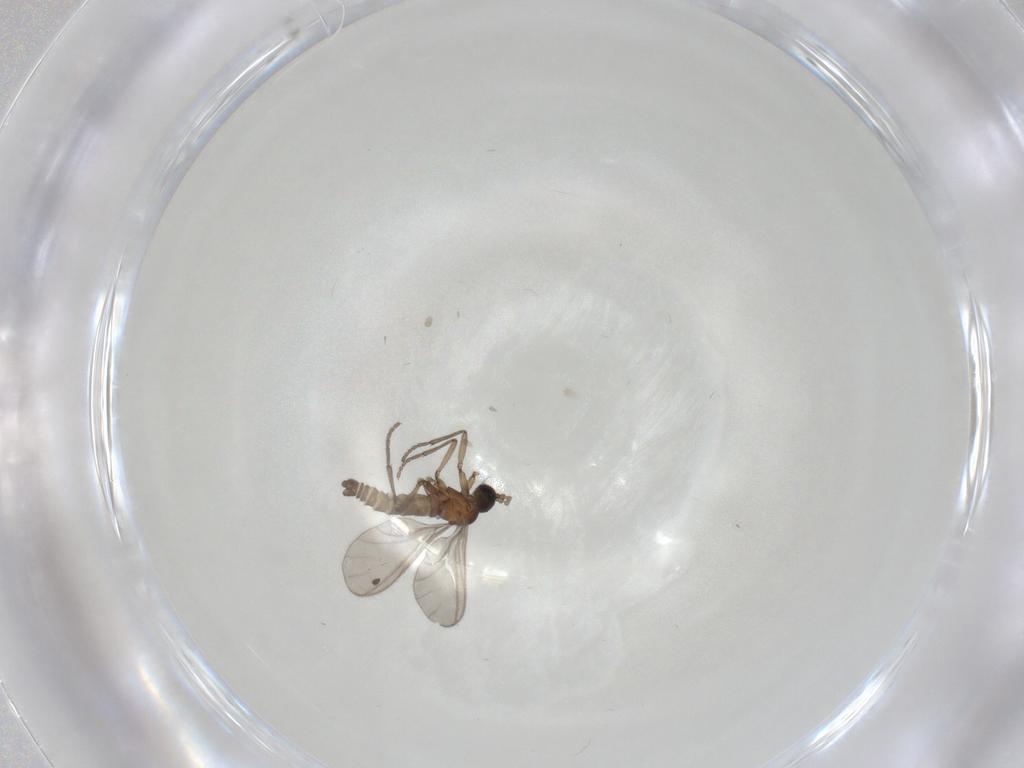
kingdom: Animalia
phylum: Arthropoda
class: Insecta
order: Diptera
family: Sciaridae
